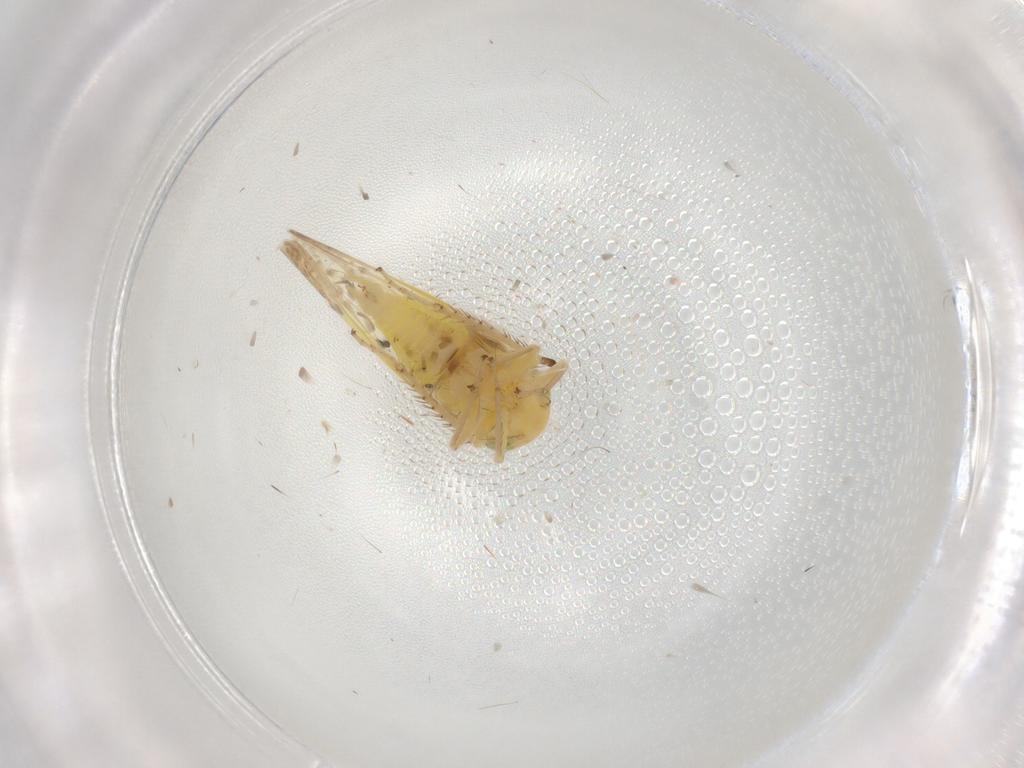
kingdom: Animalia
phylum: Arthropoda
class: Insecta
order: Hemiptera
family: Cicadellidae
